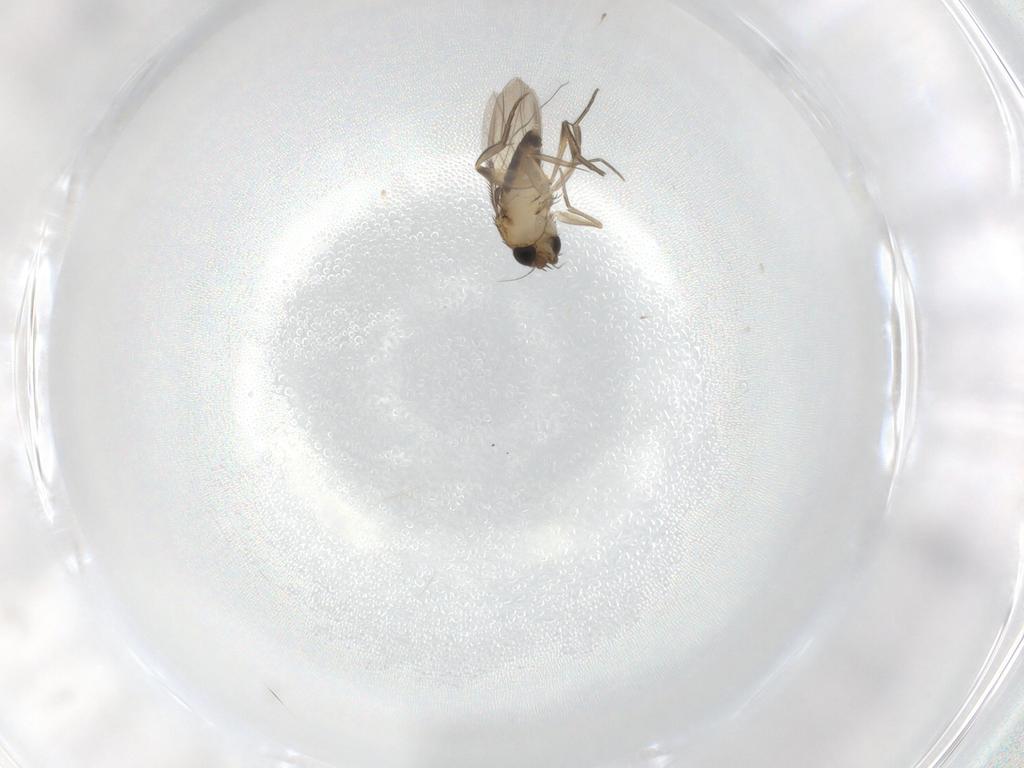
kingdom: Animalia
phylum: Arthropoda
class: Insecta
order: Diptera
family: Phoridae
